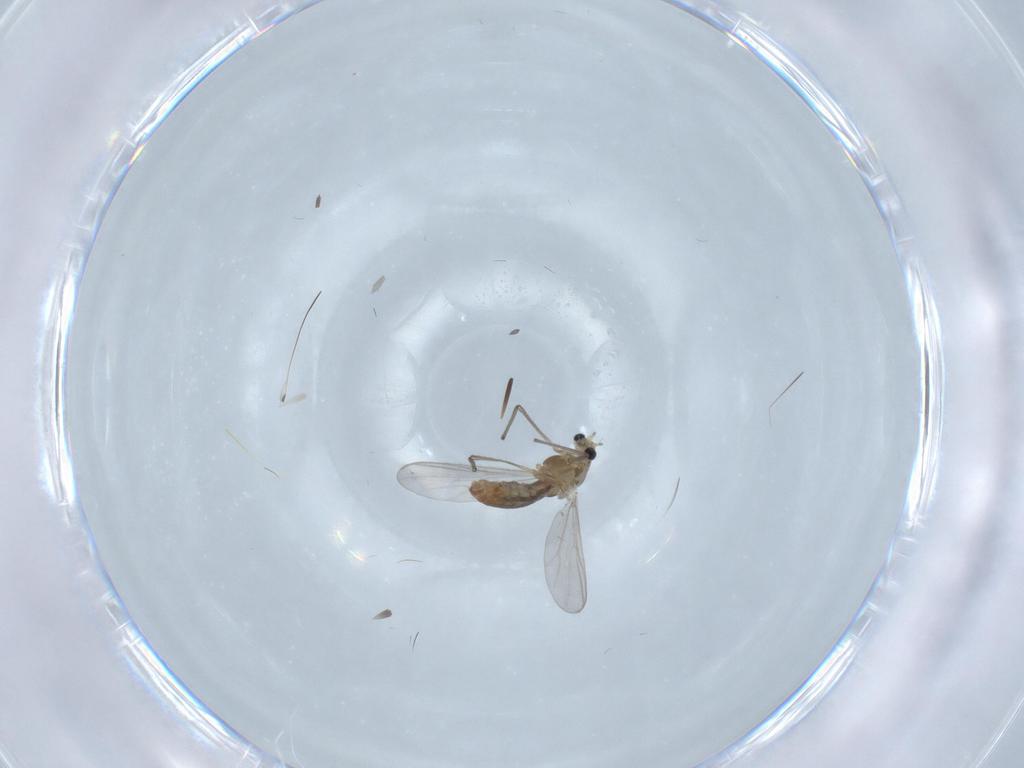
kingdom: Animalia
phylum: Arthropoda
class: Insecta
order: Diptera
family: Chironomidae
